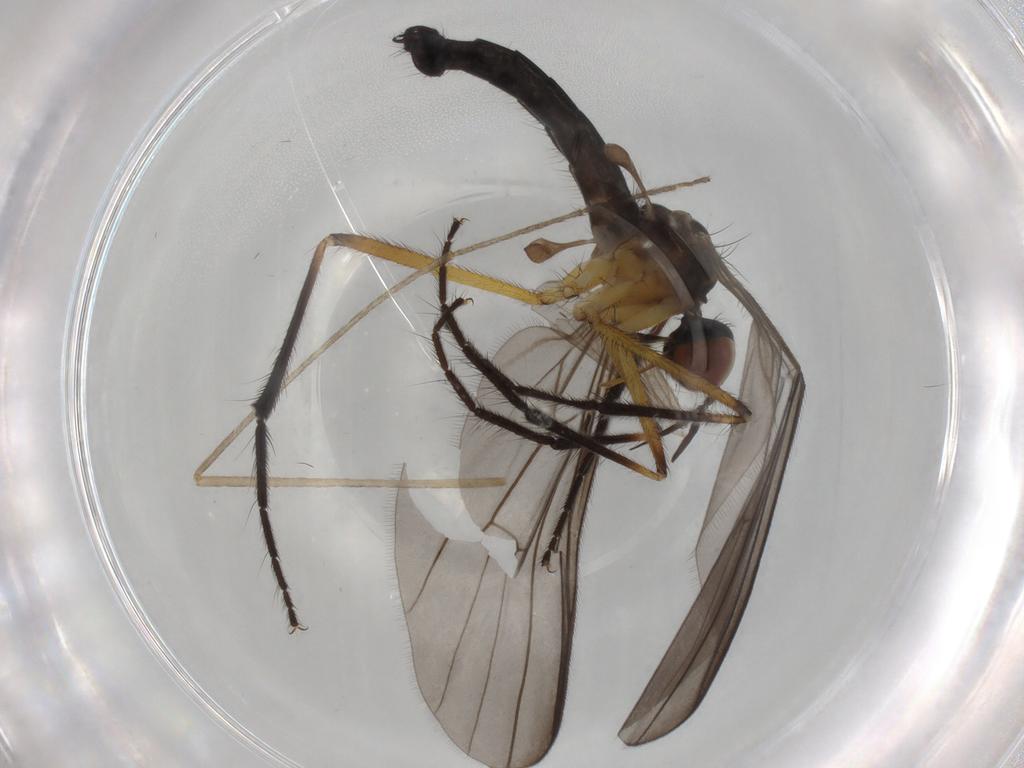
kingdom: Animalia
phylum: Arthropoda
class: Insecta
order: Diptera
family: Empididae
